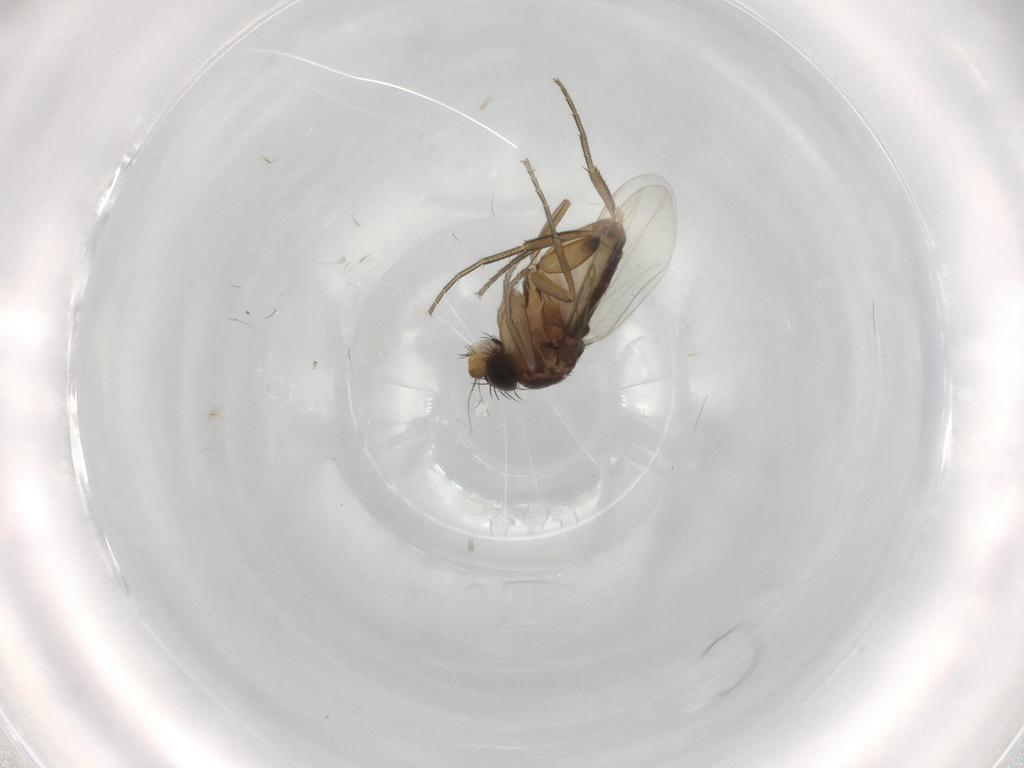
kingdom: Animalia
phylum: Arthropoda
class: Insecta
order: Diptera
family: Phoridae
